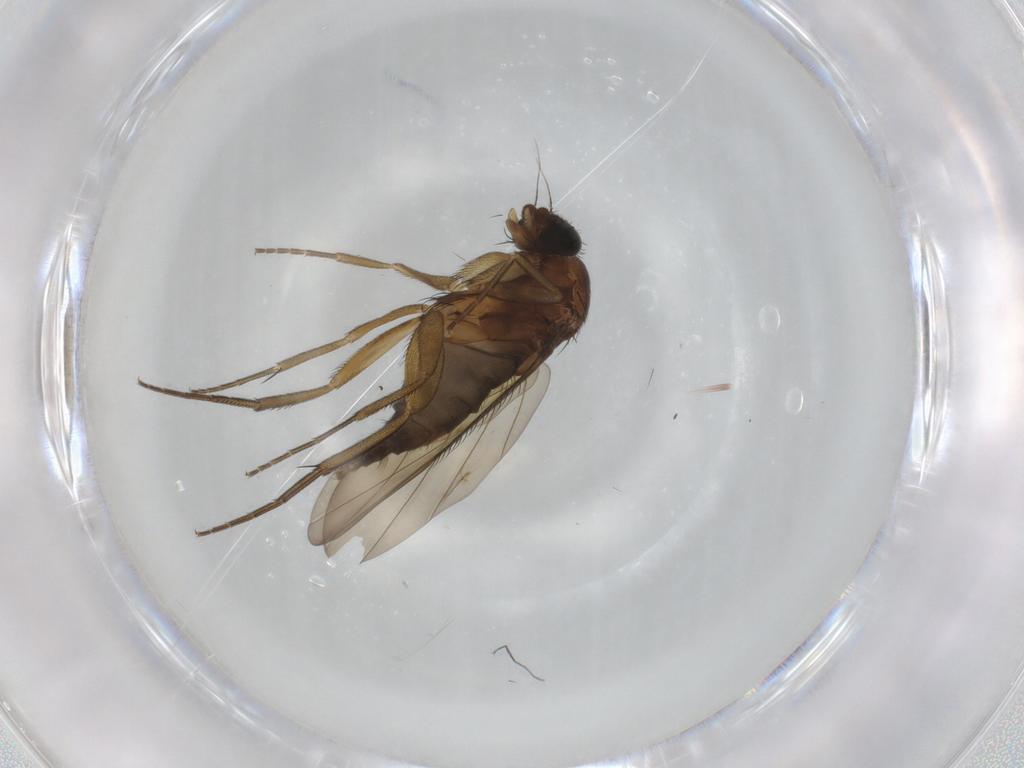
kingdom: Animalia
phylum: Arthropoda
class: Insecta
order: Diptera
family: Phoridae
